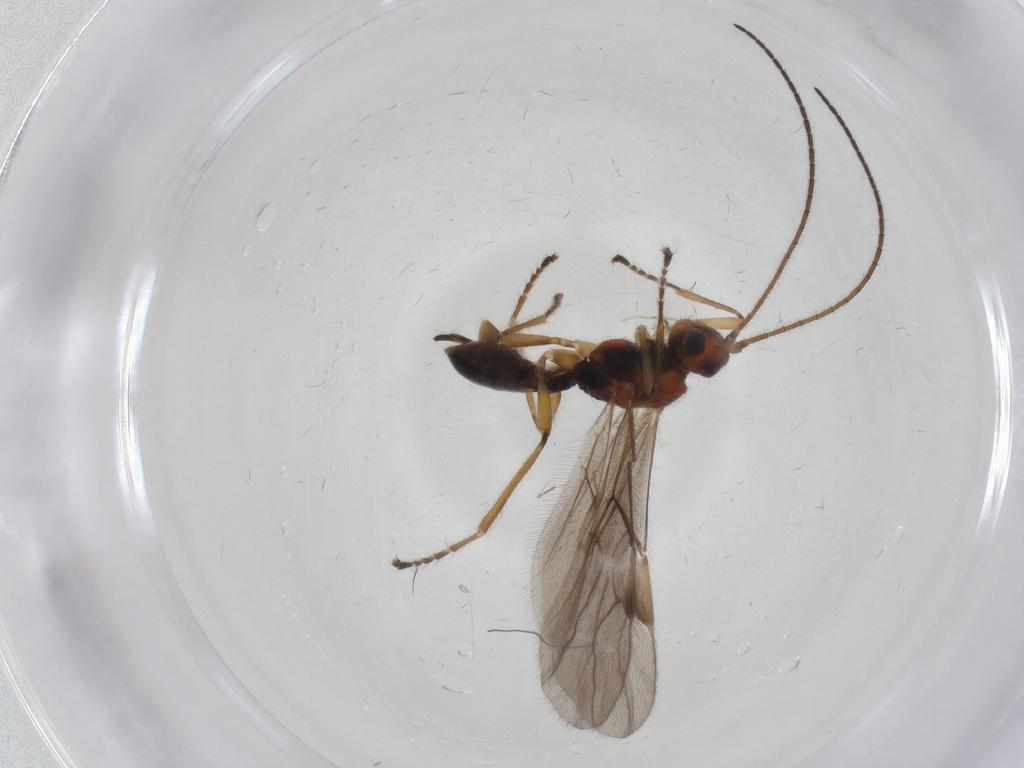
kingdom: Animalia
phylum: Arthropoda
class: Insecta
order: Hymenoptera
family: Braconidae
